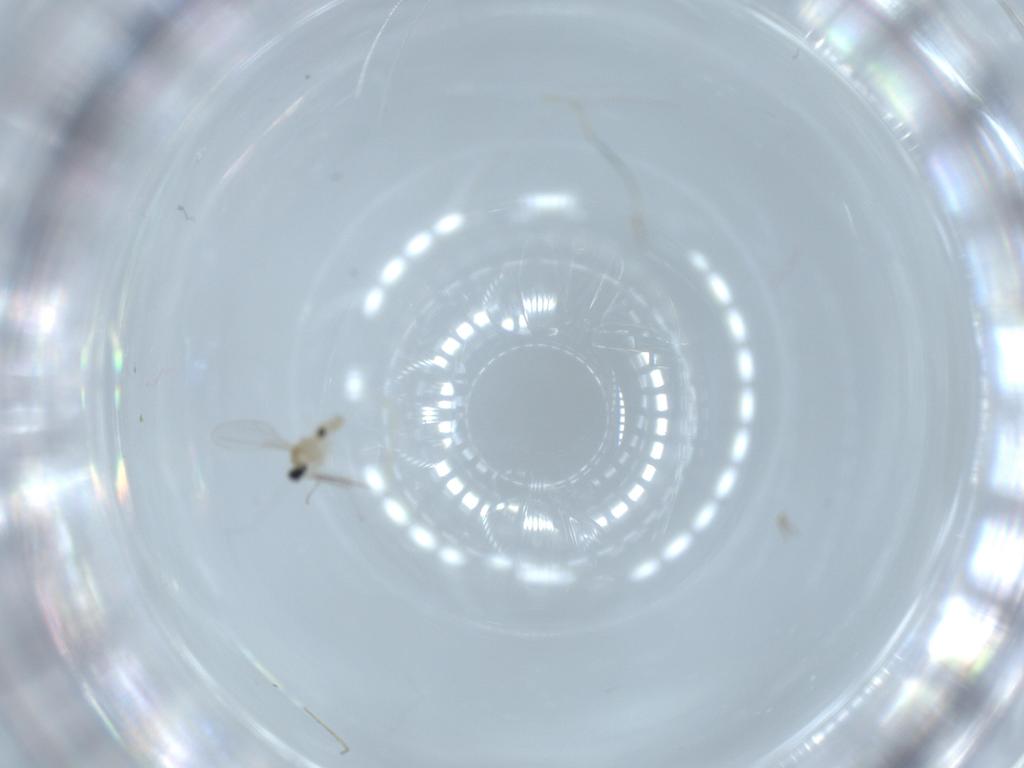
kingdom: Animalia
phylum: Arthropoda
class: Insecta
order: Diptera
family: Cecidomyiidae
